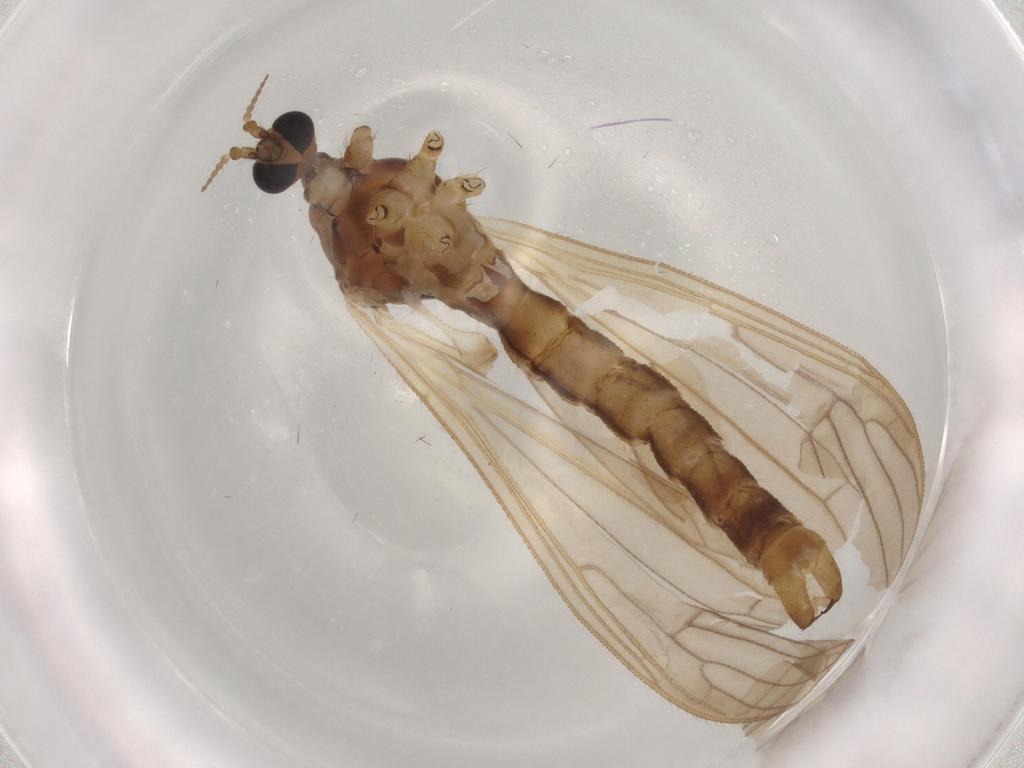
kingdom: Animalia
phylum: Arthropoda
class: Insecta
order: Diptera
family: Chloropidae
